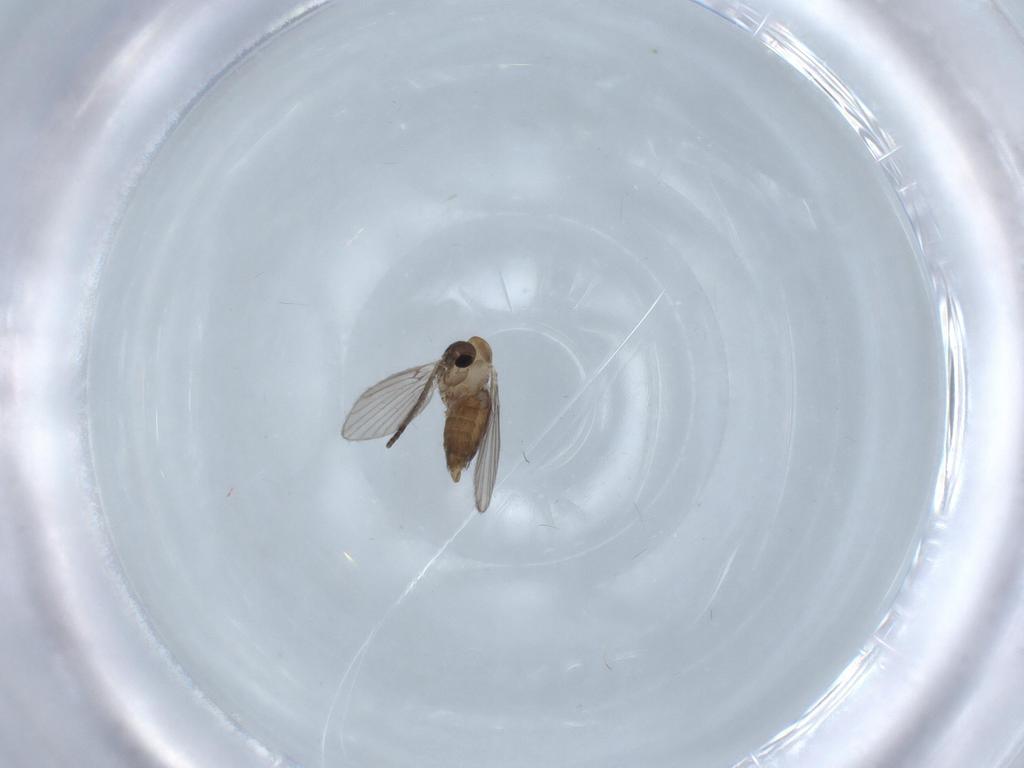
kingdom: Animalia
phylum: Arthropoda
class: Insecta
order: Diptera
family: Psychodidae
